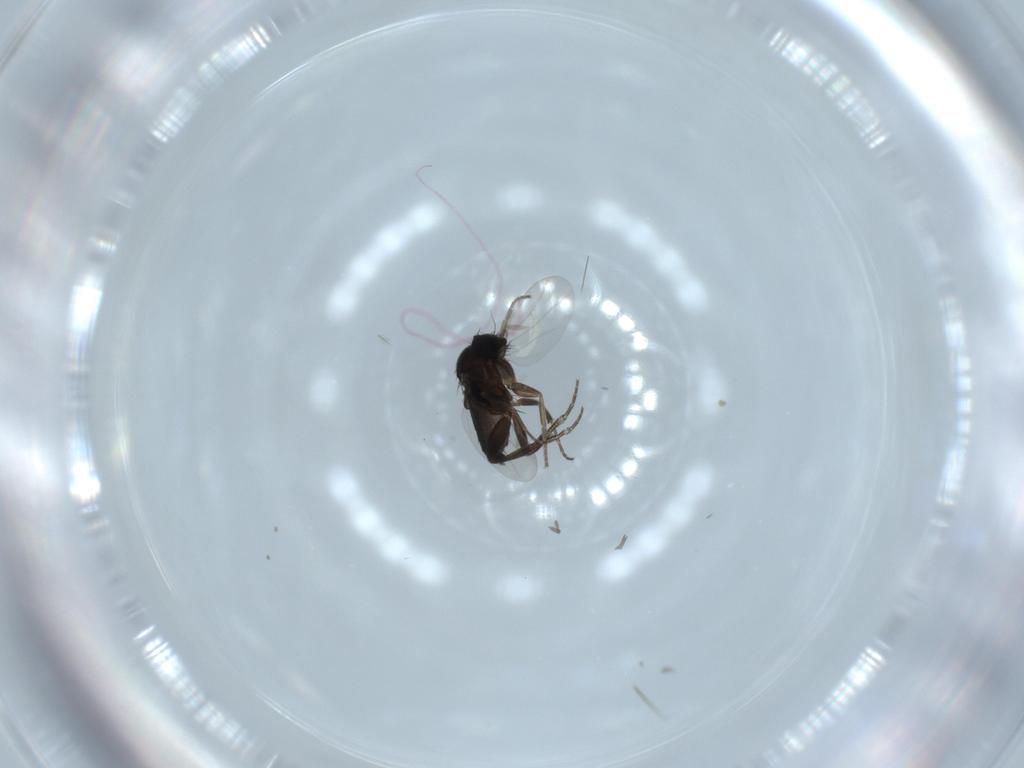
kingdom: Animalia
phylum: Arthropoda
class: Insecta
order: Diptera
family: Phoridae
